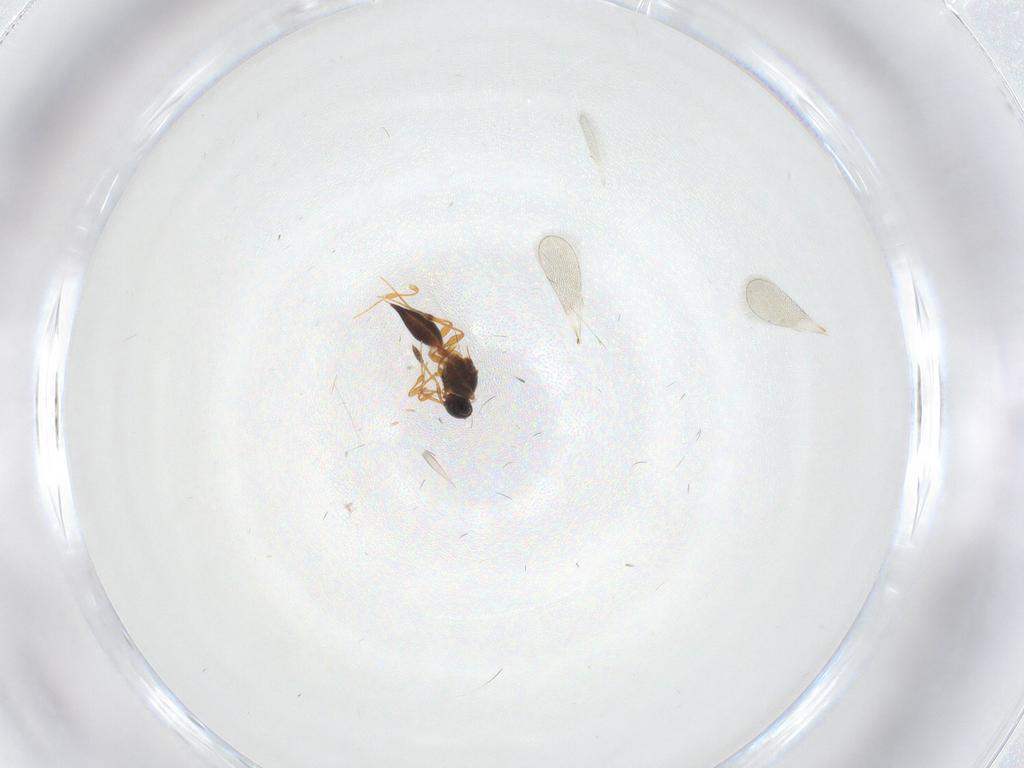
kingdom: Animalia
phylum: Arthropoda
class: Insecta
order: Hymenoptera
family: Platygastridae
